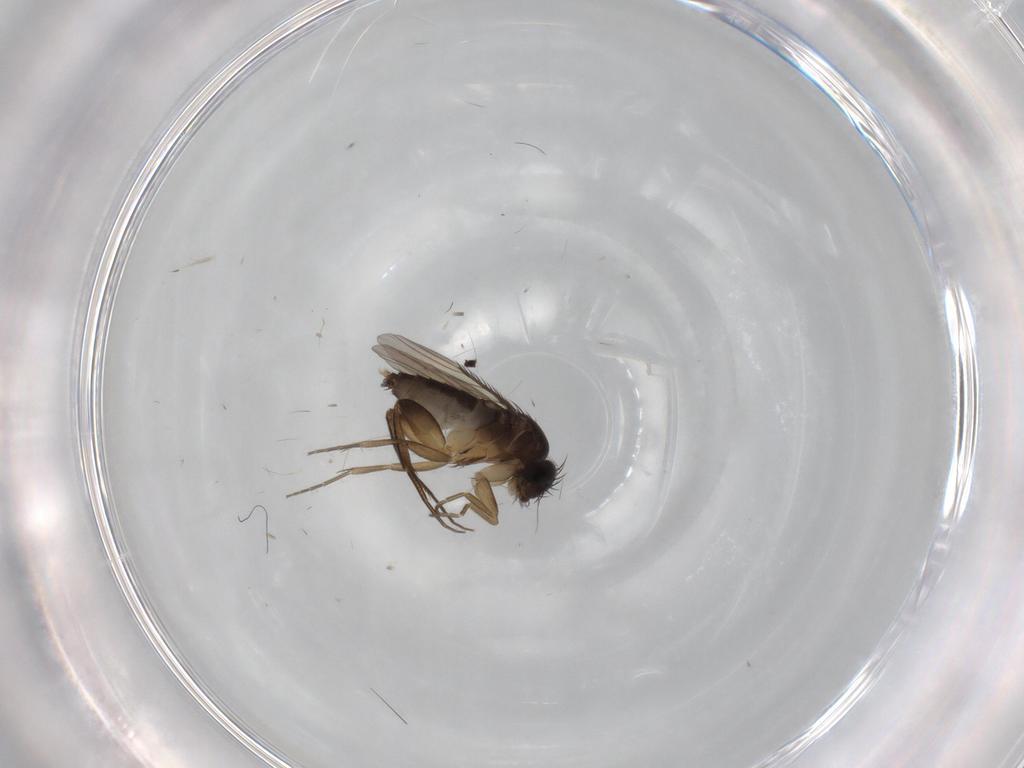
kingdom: Animalia
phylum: Arthropoda
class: Insecta
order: Diptera
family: Phoridae
